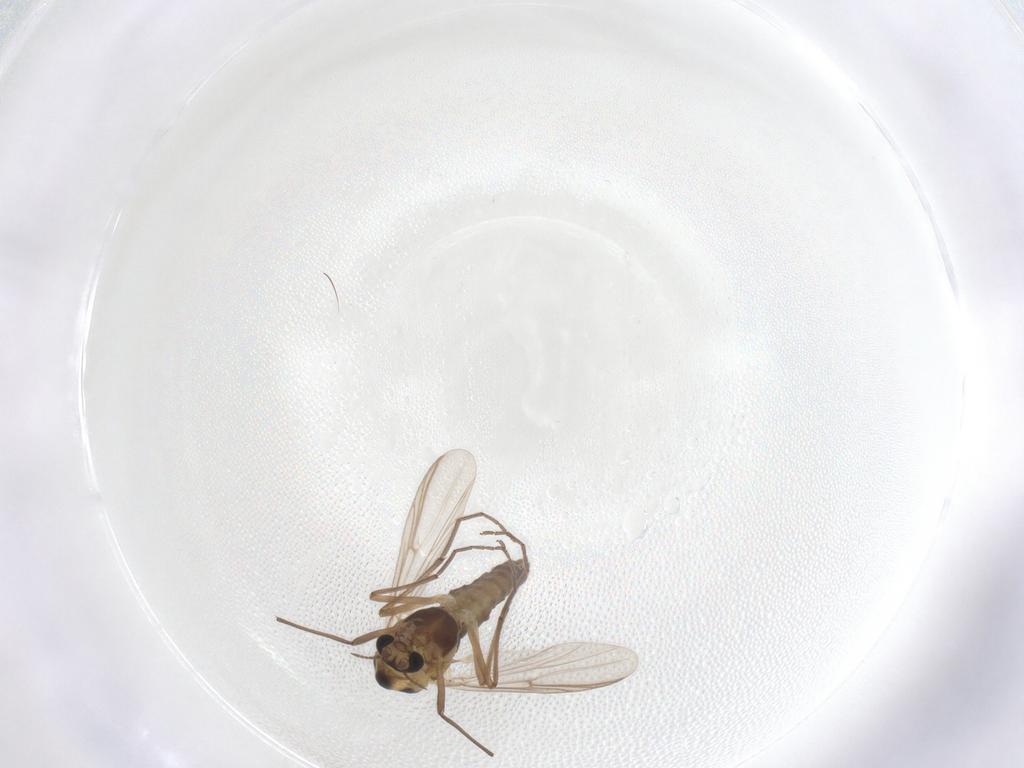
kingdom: Animalia
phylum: Arthropoda
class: Insecta
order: Diptera
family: Chironomidae
